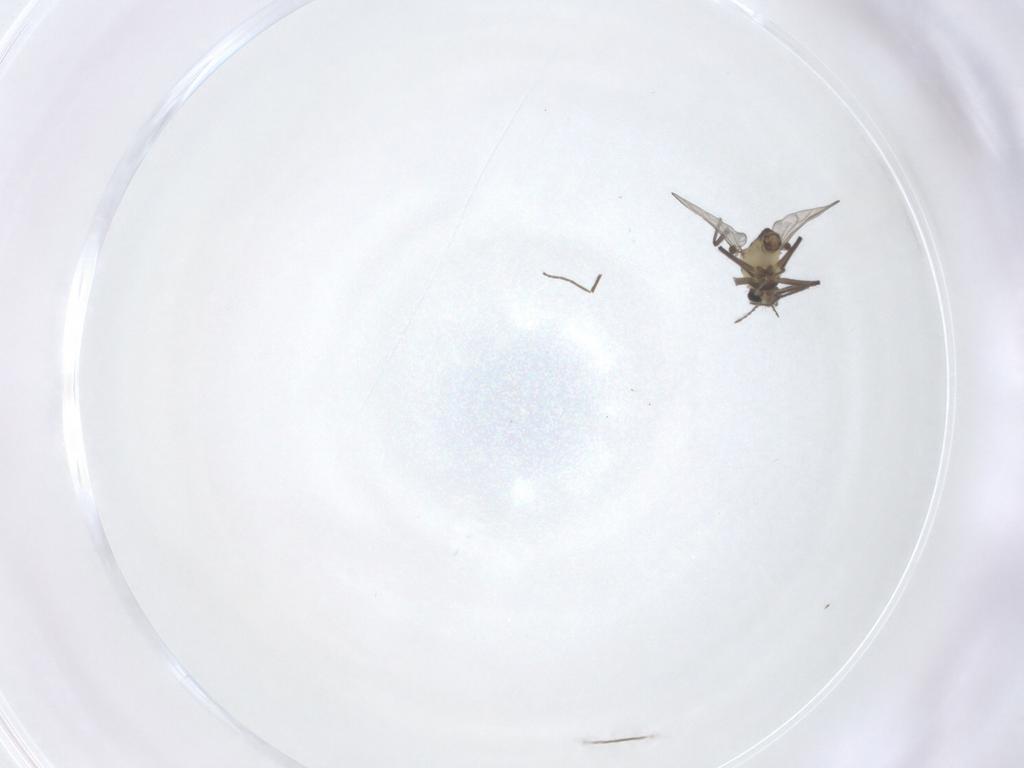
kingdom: Animalia
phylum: Arthropoda
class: Insecta
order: Diptera
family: Chironomidae
